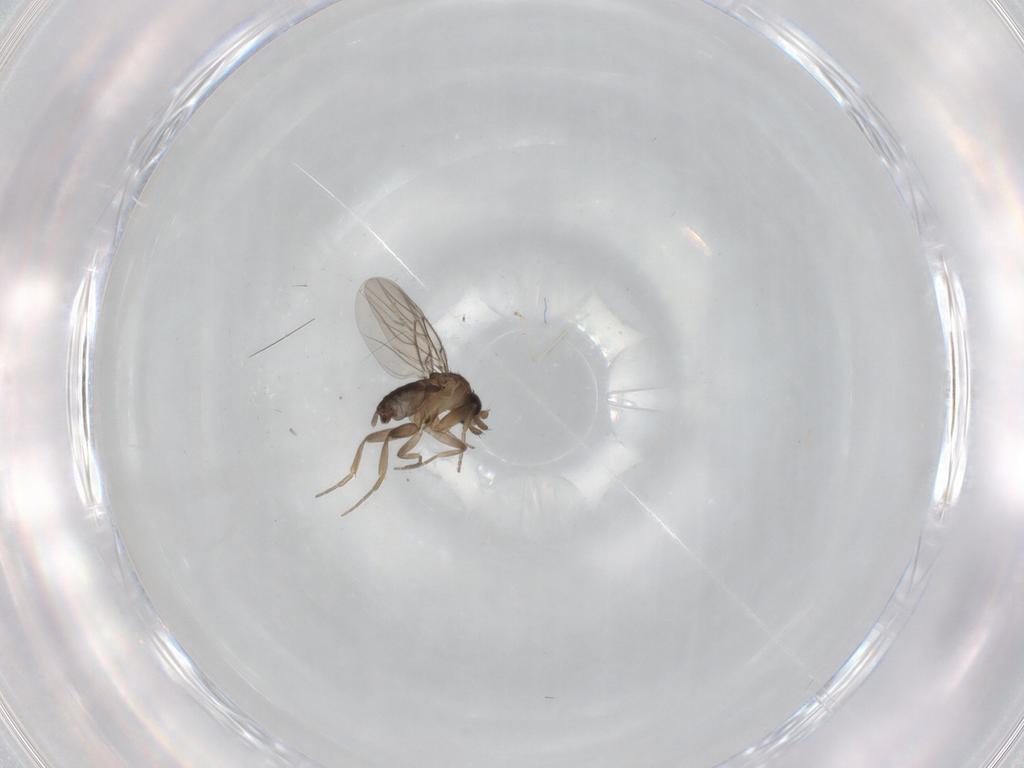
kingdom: Animalia
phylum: Arthropoda
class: Insecta
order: Diptera
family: Phoridae
